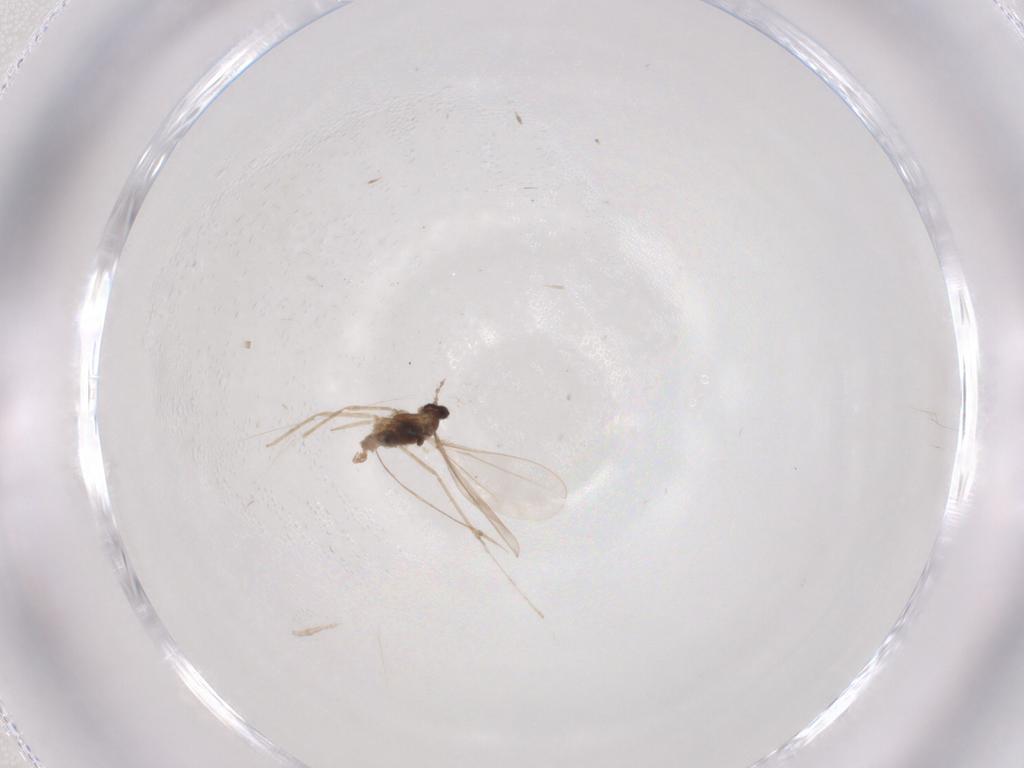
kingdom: Animalia
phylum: Arthropoda
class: Insecta
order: Diptera
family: Cecidomyiidae
